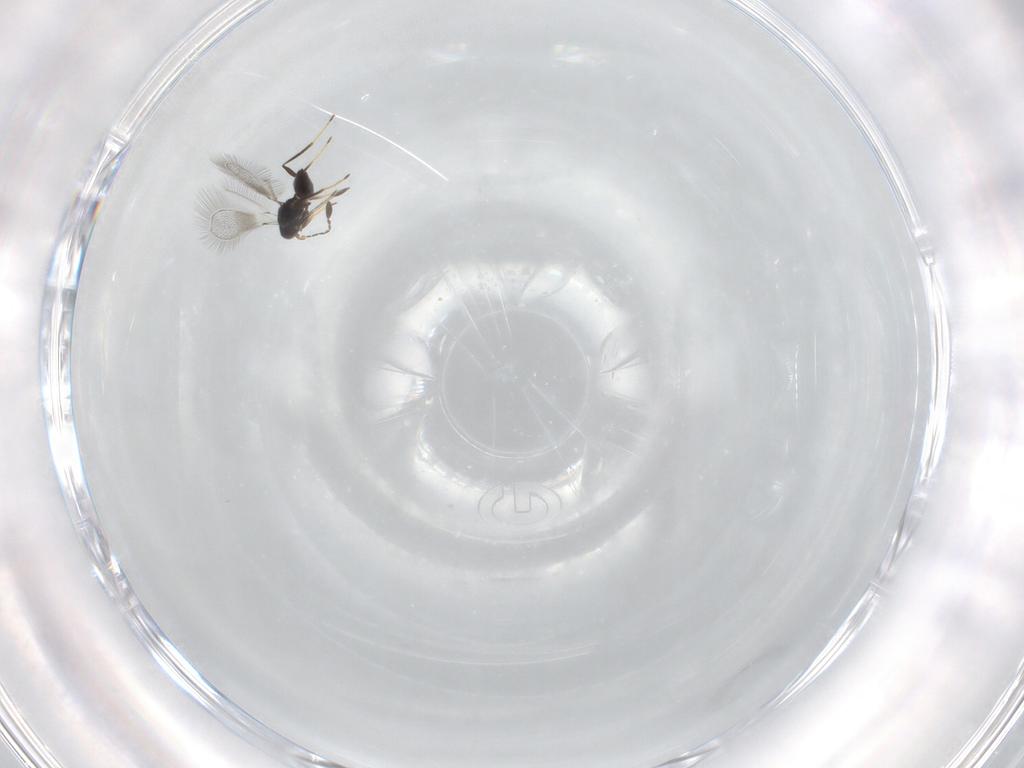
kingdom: Animalia
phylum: Arthropoda
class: Insecta
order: Hymenoptera
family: Mymaridae
